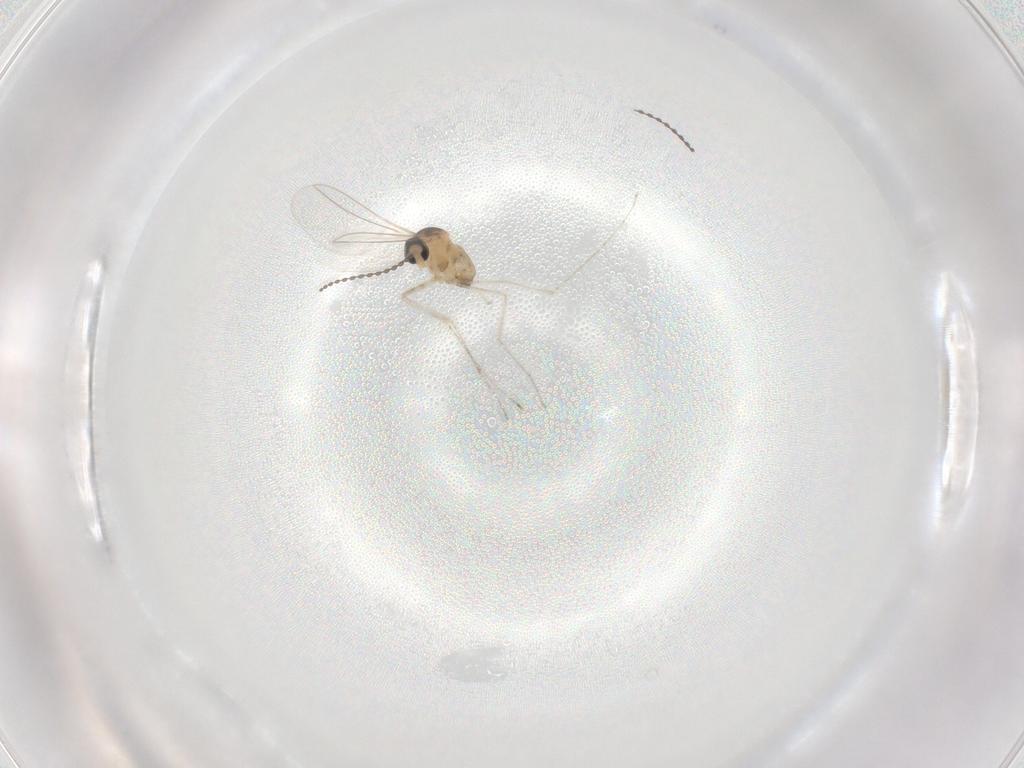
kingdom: Animalia
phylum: Arthropoda
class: Insecta
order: Diptera
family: Cecidomyiidae
